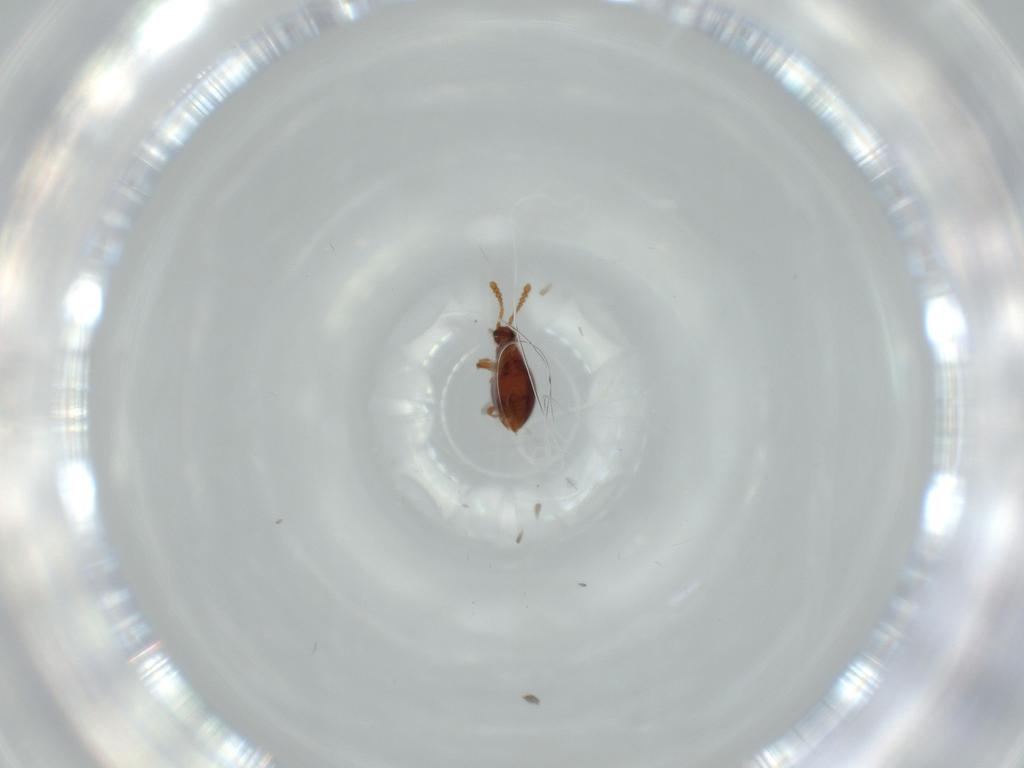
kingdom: Animalia
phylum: Arthropoda
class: Insecta
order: Coleoptera
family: Staphylinidae
